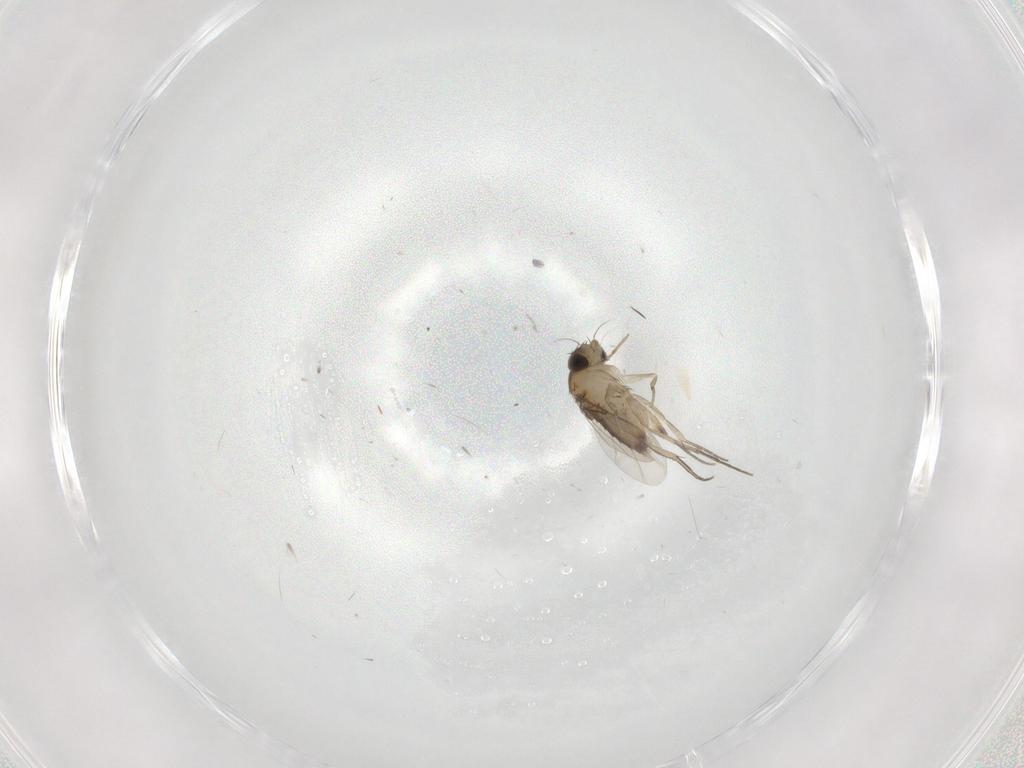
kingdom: Animalia
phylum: Arthropoda
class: Insecta
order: Diptera
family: Chironomidae
